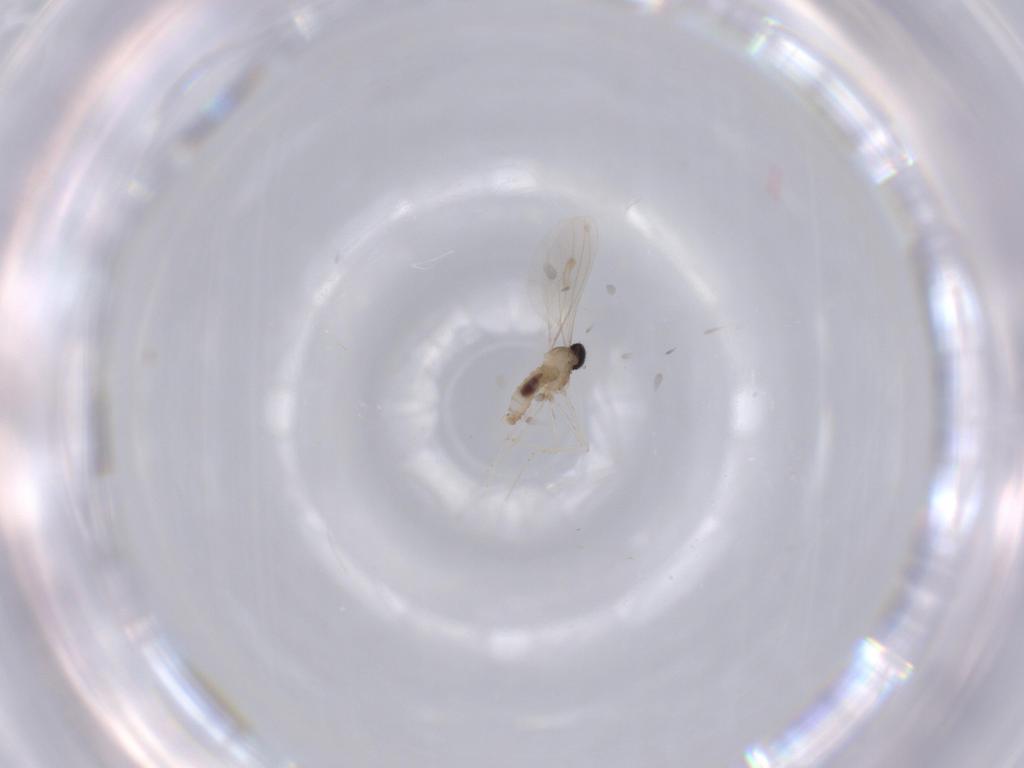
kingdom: Animalia
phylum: Arthropoda
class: Insecta
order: Diptera
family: Cecidomyiidae
